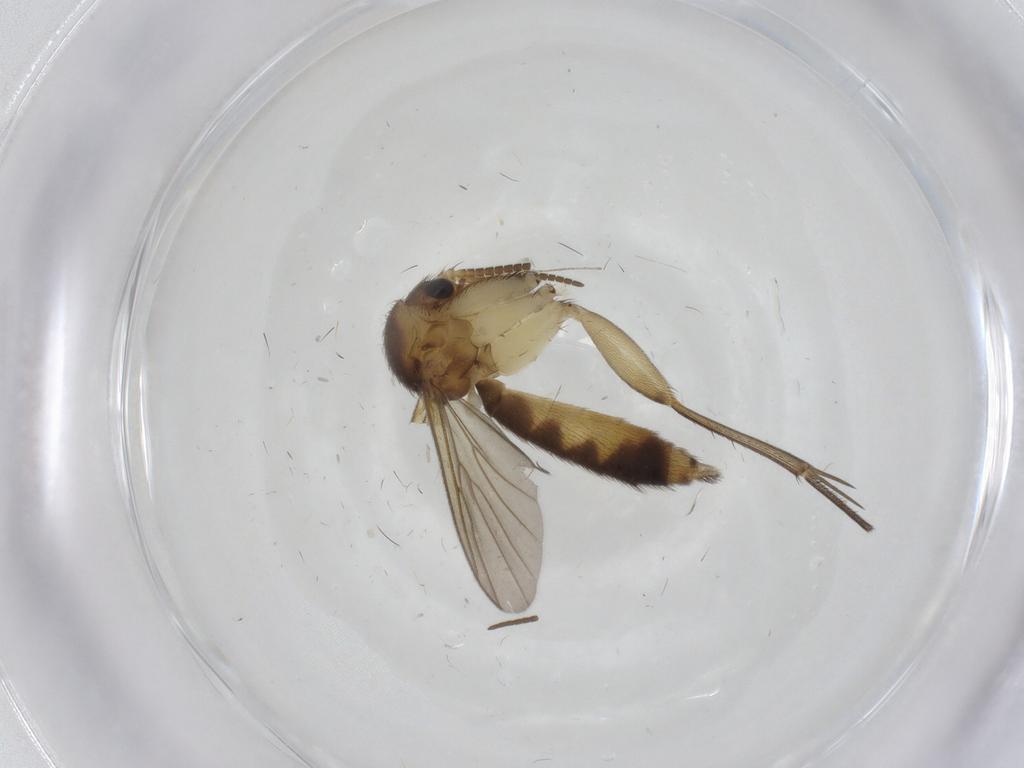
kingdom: Animalia
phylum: Arthropoda
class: Insecta
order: Diptera
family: Mycetophilidae
